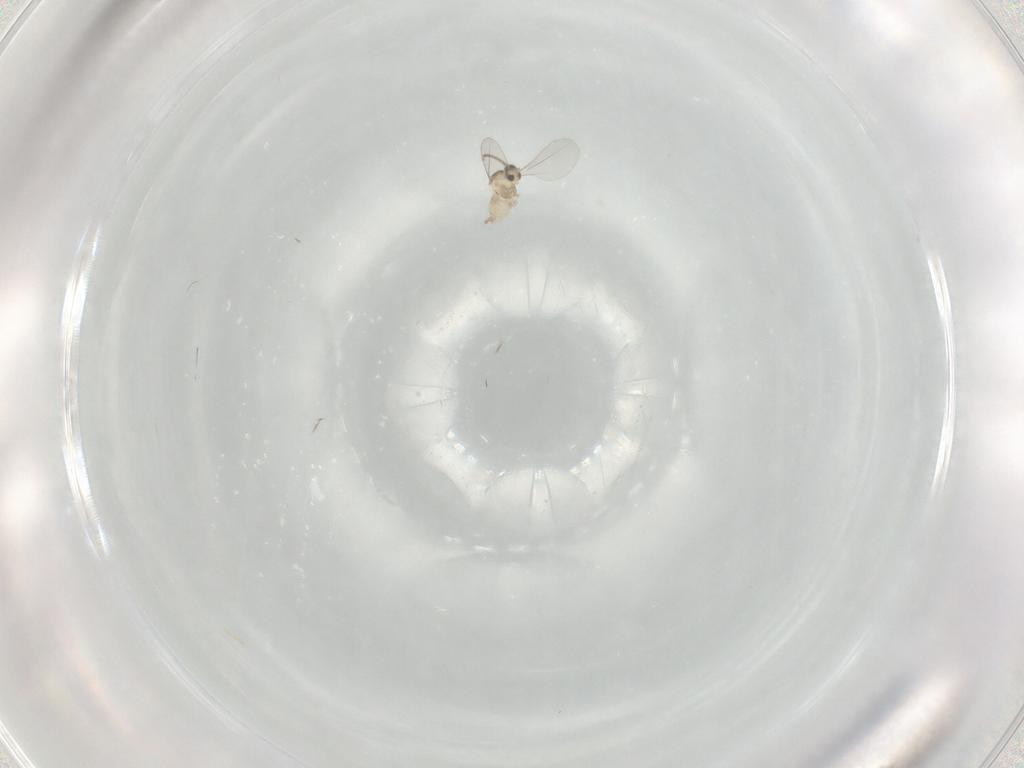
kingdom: Animalia
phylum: Arthropoda
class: Insecta
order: Diptera
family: Cecidomyiidae
